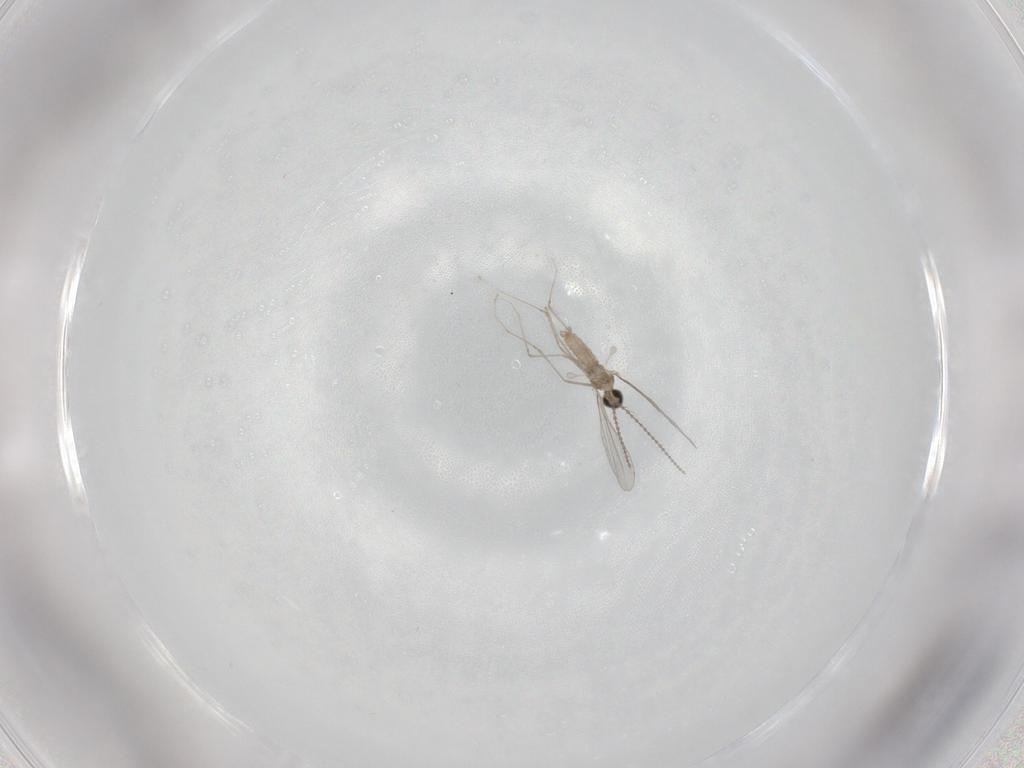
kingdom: Animalia
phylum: Arthropoda
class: Insecta
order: Diptera
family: Cecidomyiidae
